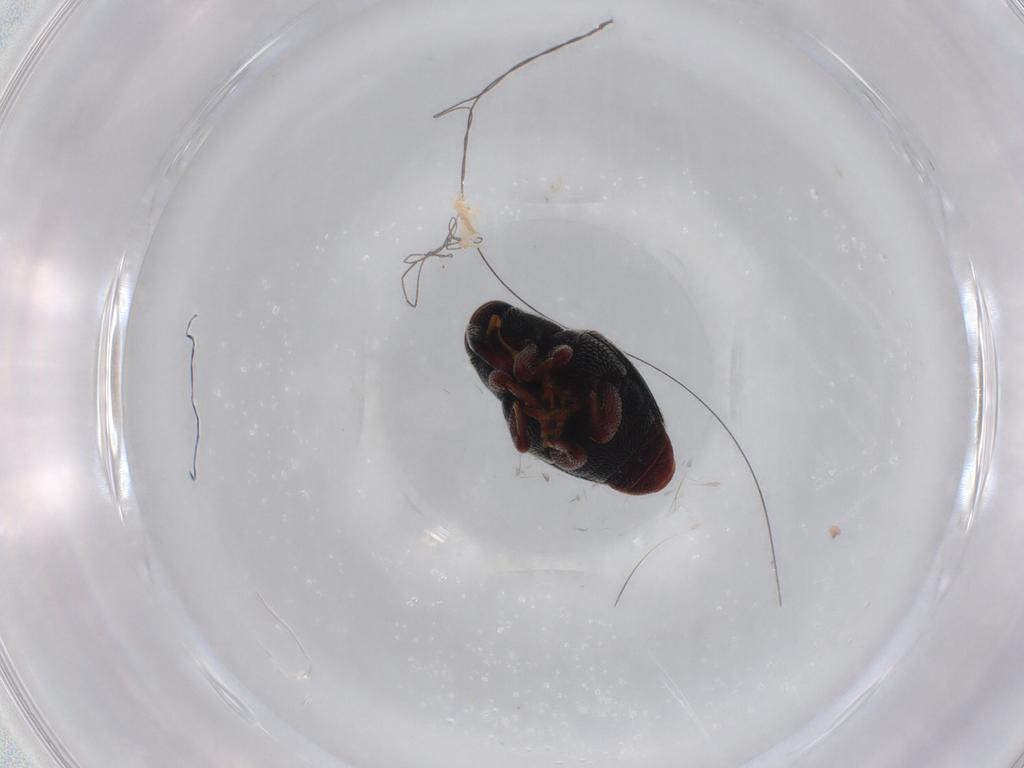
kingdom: Animalia
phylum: Arthropoda
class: Insecta
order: Coleoptera
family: Curculionidae
